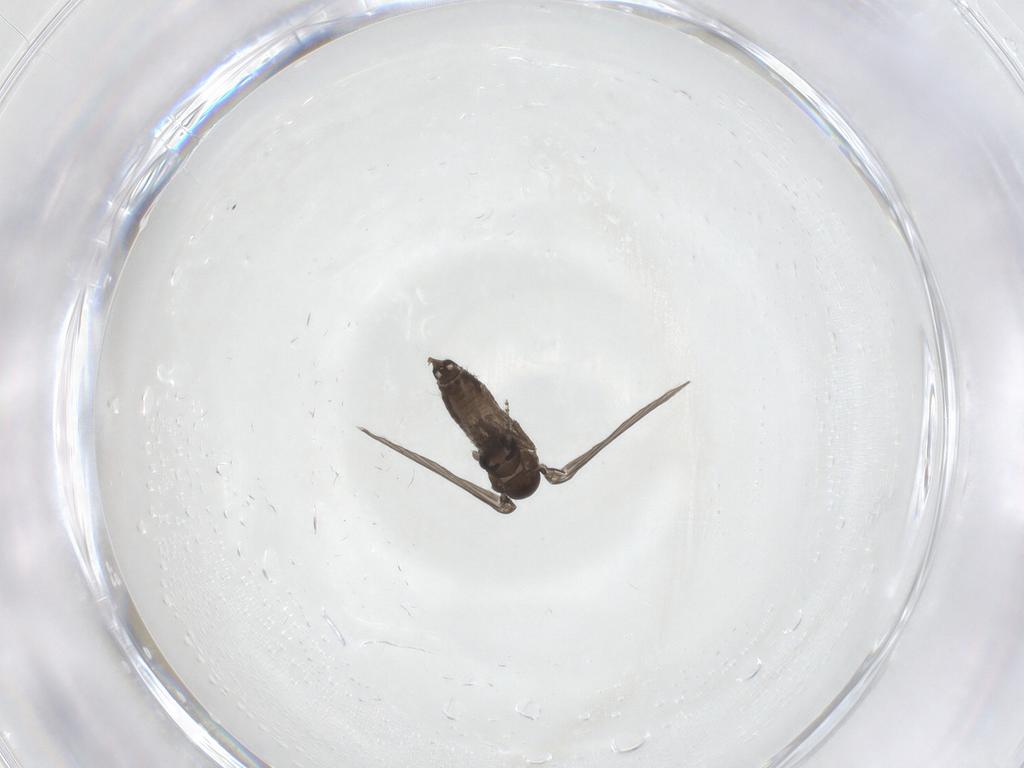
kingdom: Animalia
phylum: Arthropoda
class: Insecta
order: Diptera
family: Psychodidae
